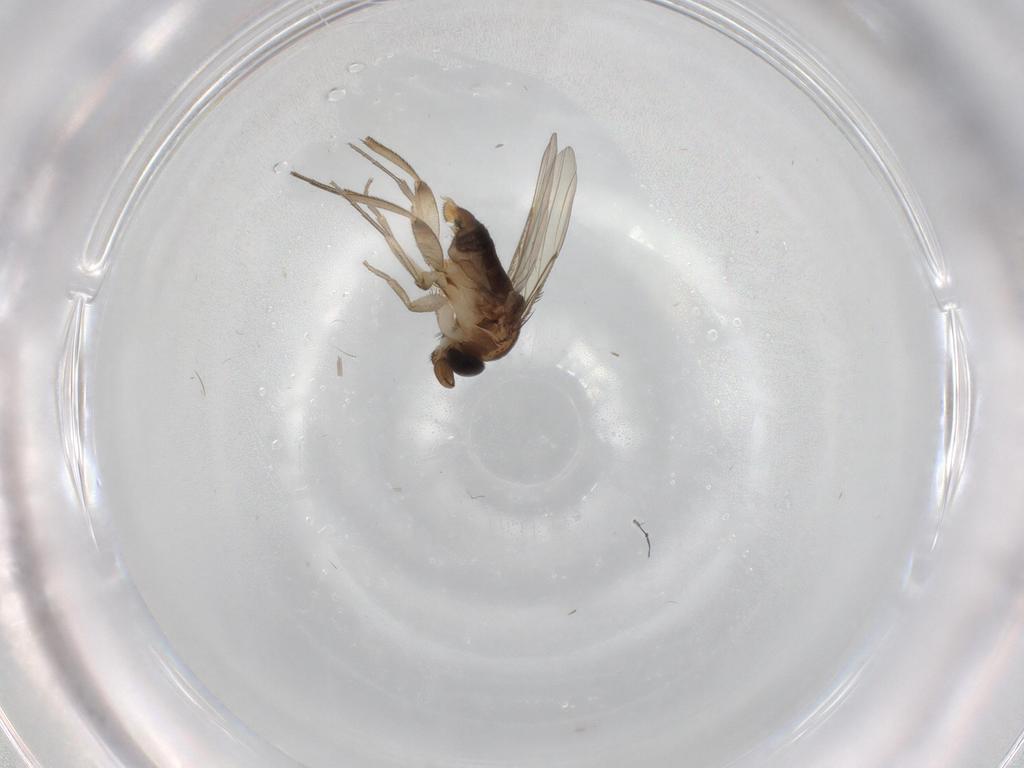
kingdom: Animalia
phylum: Arthropoda
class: Insecta
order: Diptera
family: Phoridae
